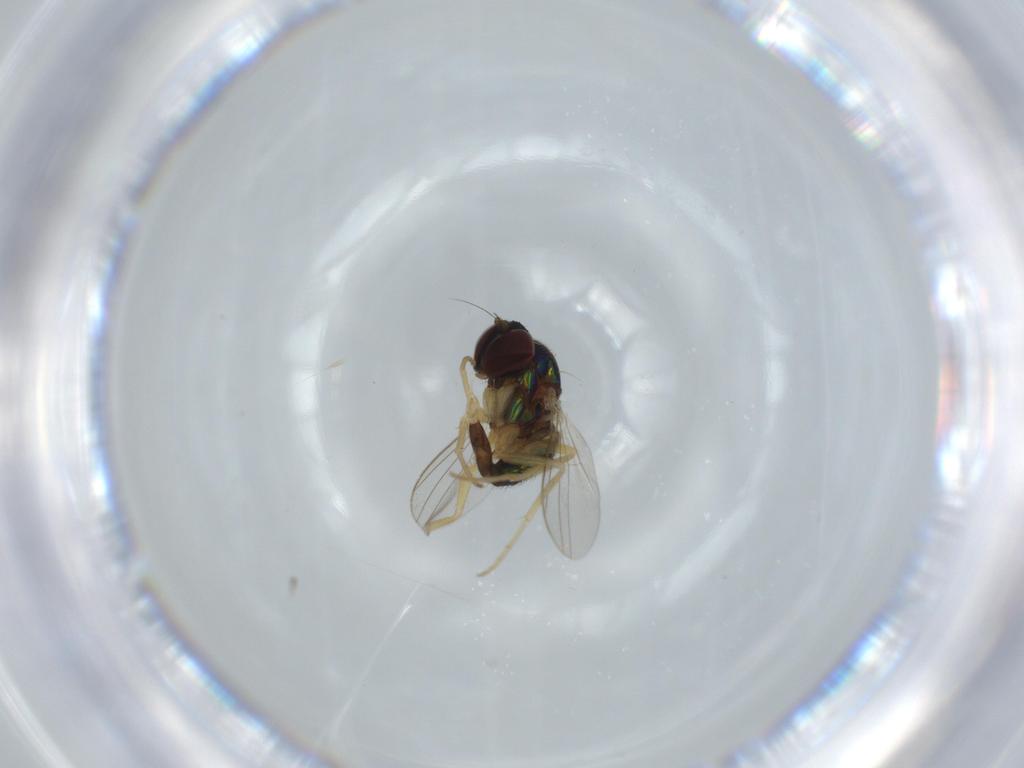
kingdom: Animalia
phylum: Arthropoda
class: Insecta
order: Diptera
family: Dolichopodidae
